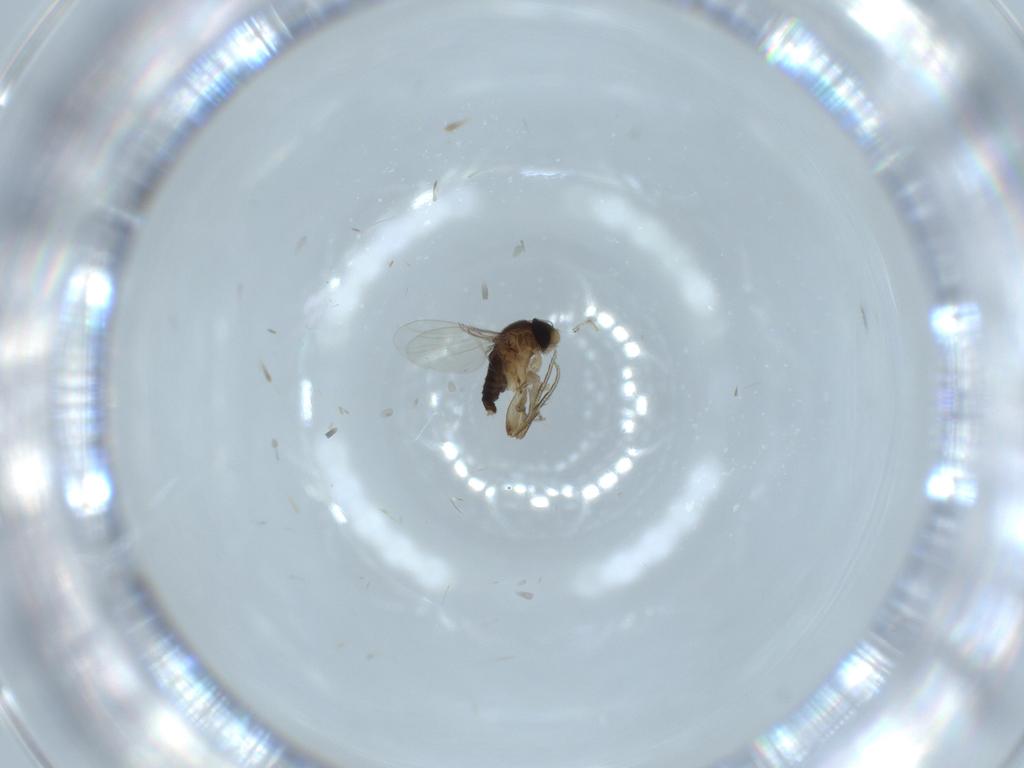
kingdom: Animalia
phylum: Arthropoda
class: Insecta
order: Diptera
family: Phoridae
